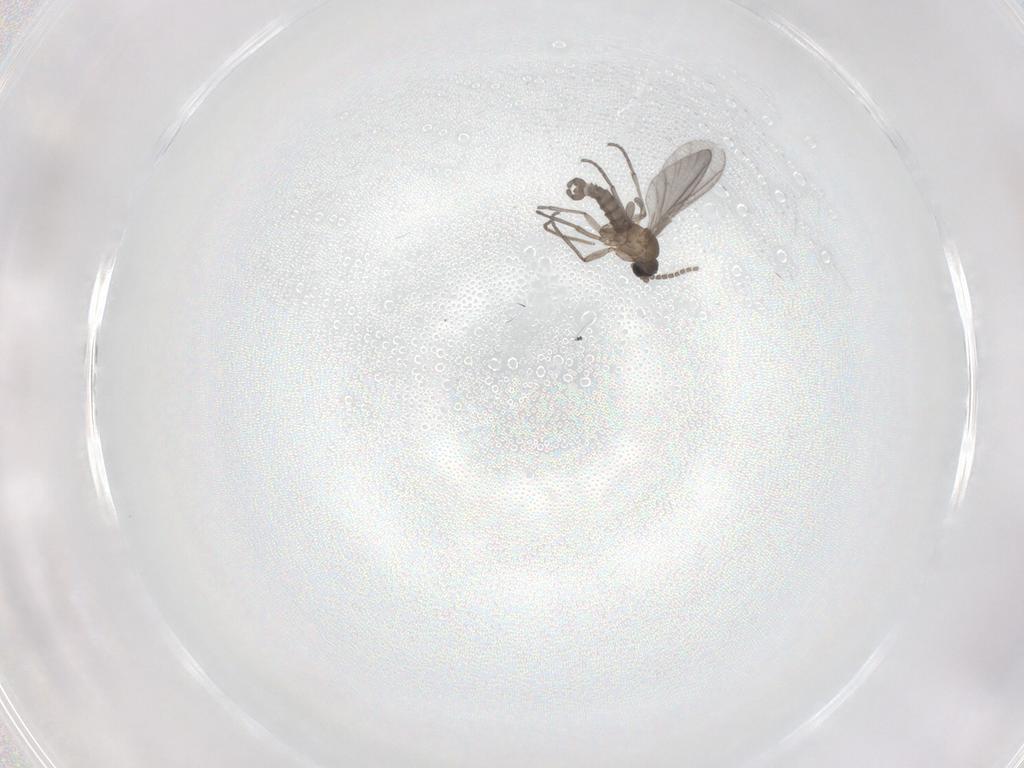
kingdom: Animalia
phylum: Arthropoda
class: Insecta
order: Diptera
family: Sciaridae
